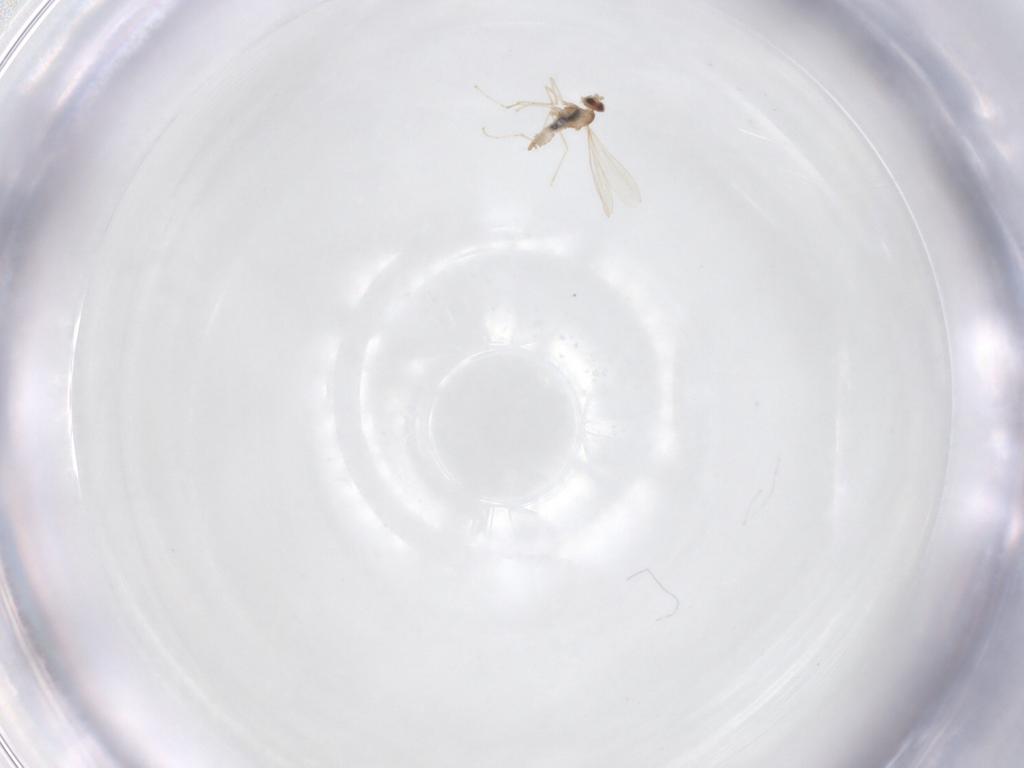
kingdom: Animalia
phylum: Arthropoda
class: Insecta
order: Diptera
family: Cecidomyiidae
